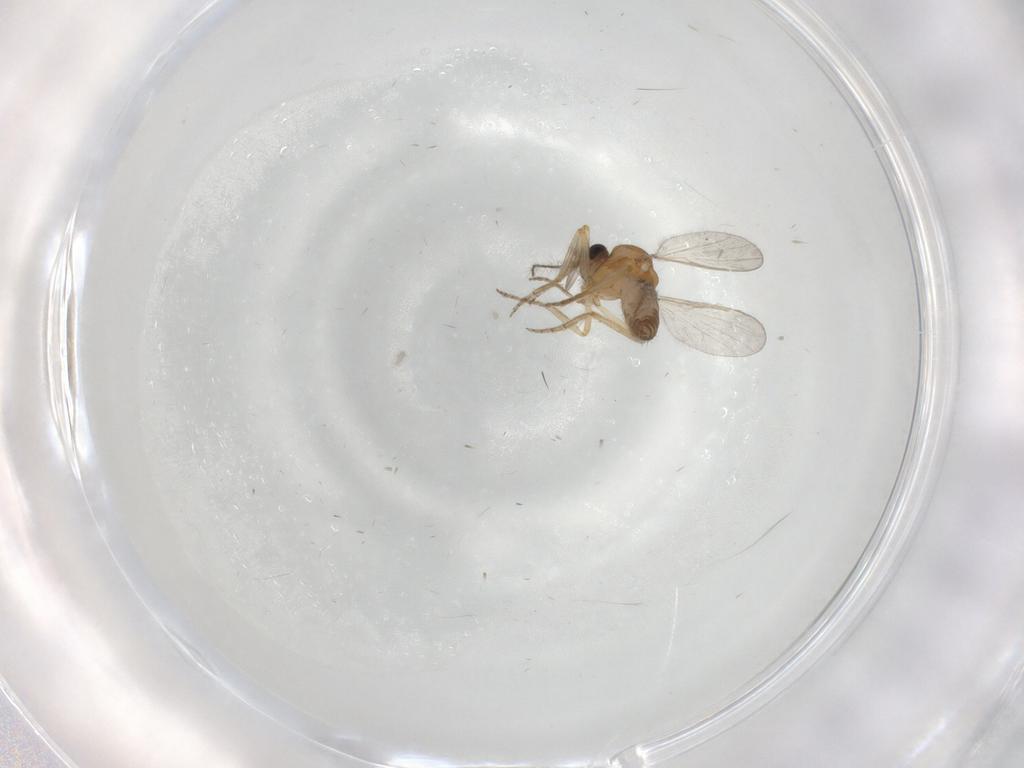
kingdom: Animalia
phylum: Arthropoda
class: Insecta
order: Diptera
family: Ceratopogonidae
